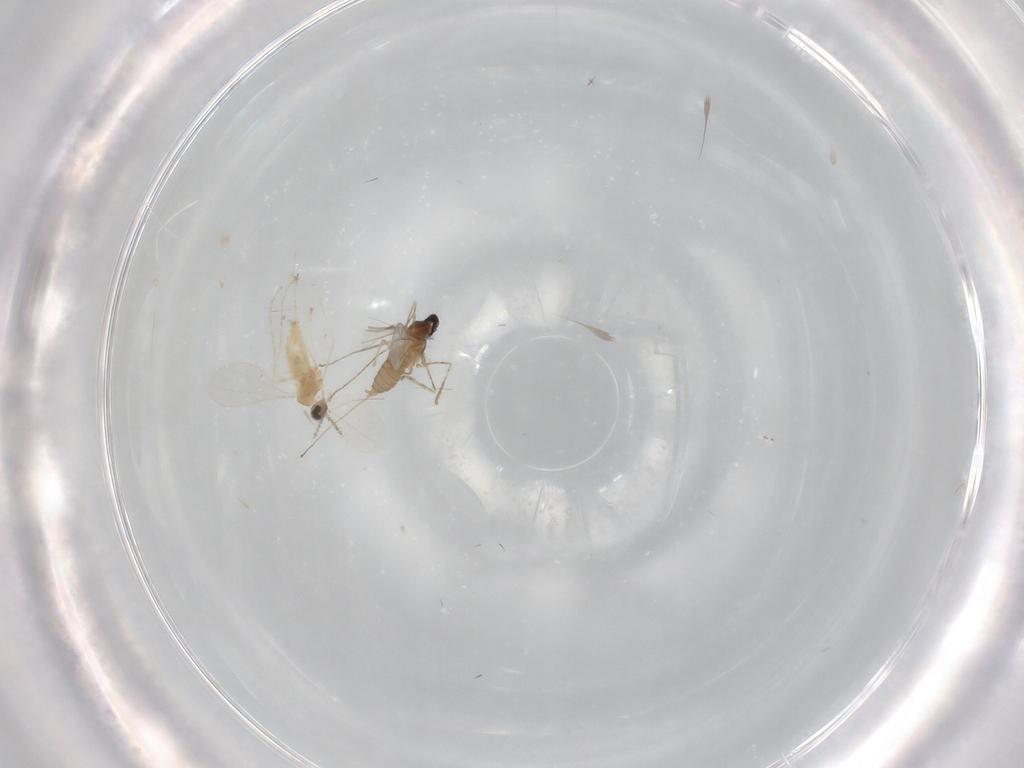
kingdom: Animalia
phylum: Arthropoda
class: Insecta
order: Diptera
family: Cecidomyiidae
